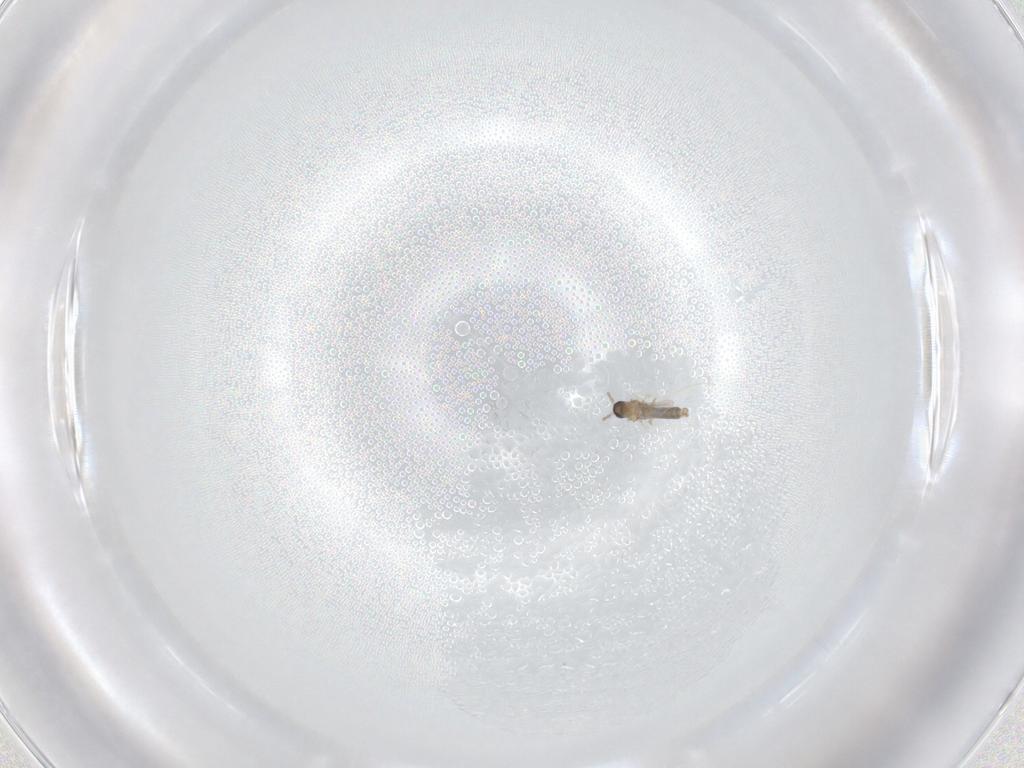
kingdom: Animalia
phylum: Arthropoda
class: Insecta
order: Diptera
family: Cecidomyiidae
